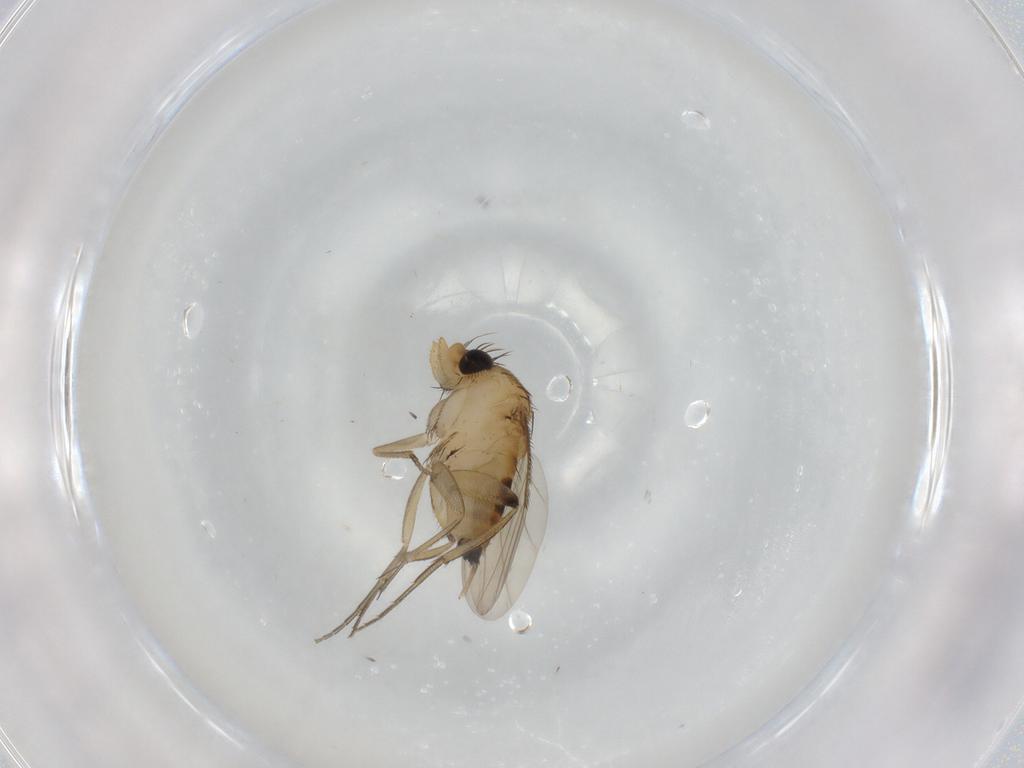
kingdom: Animalia
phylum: Arthropoda
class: Insecta
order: Diptera
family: Phoridae
